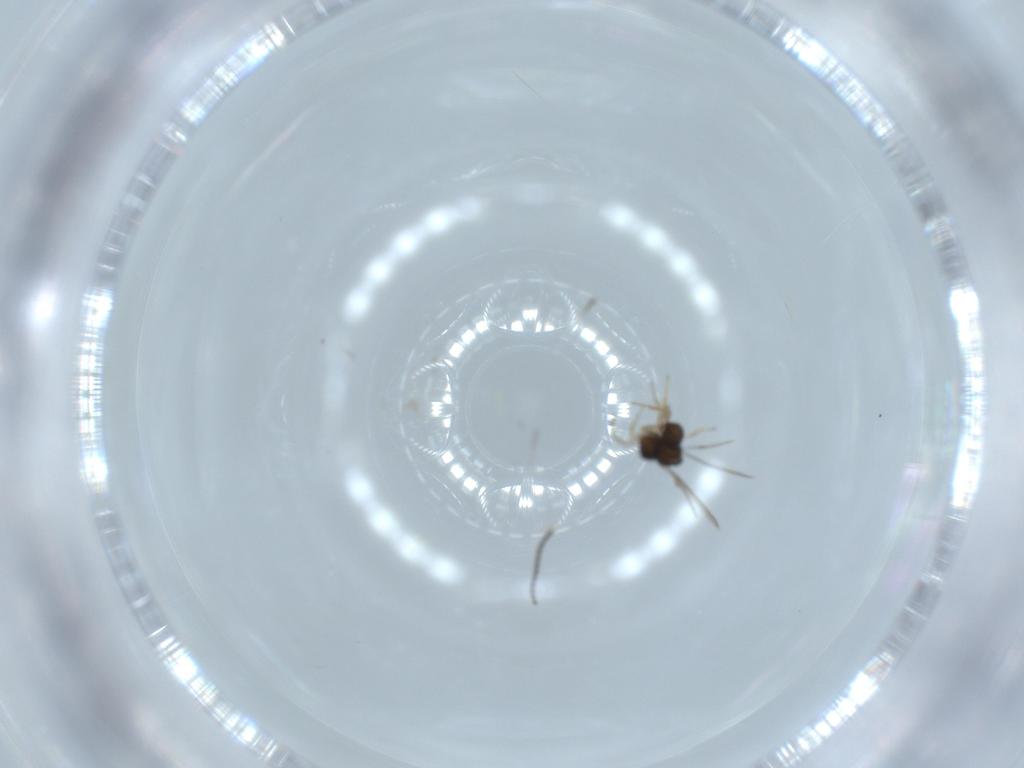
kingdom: Animalia
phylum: Arthropoda
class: Insecta
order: Hymenoptera
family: Scelionidae
